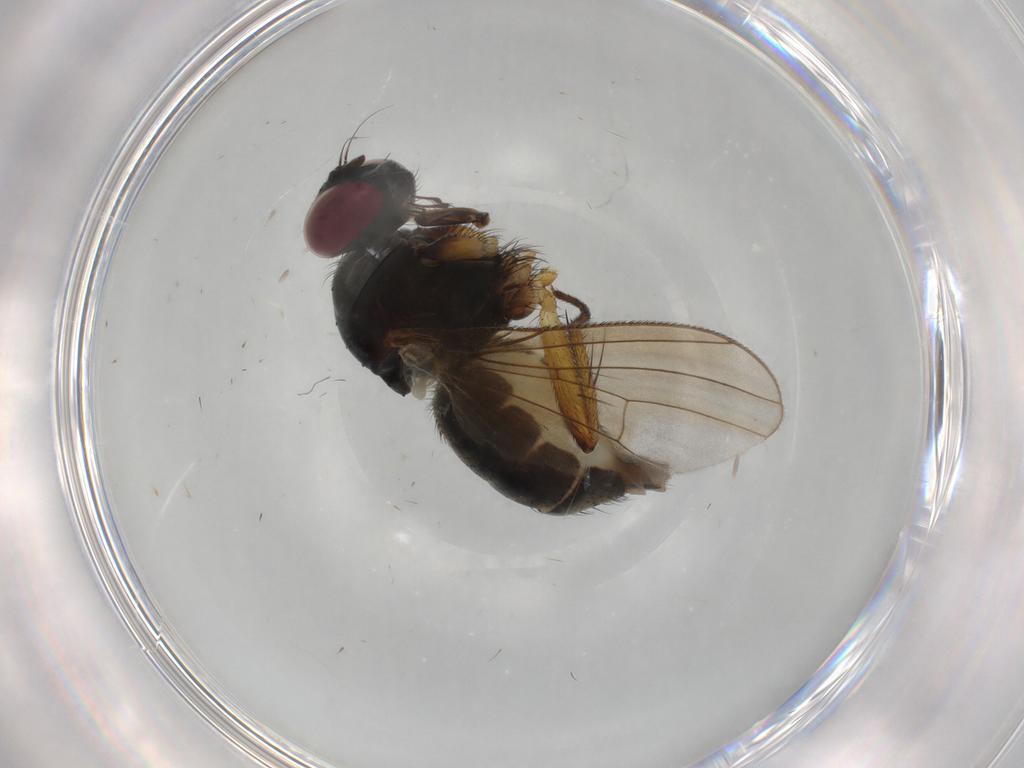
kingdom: Animalia
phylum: Arthropoda
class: Insecta
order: Diptera
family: Muscidae
